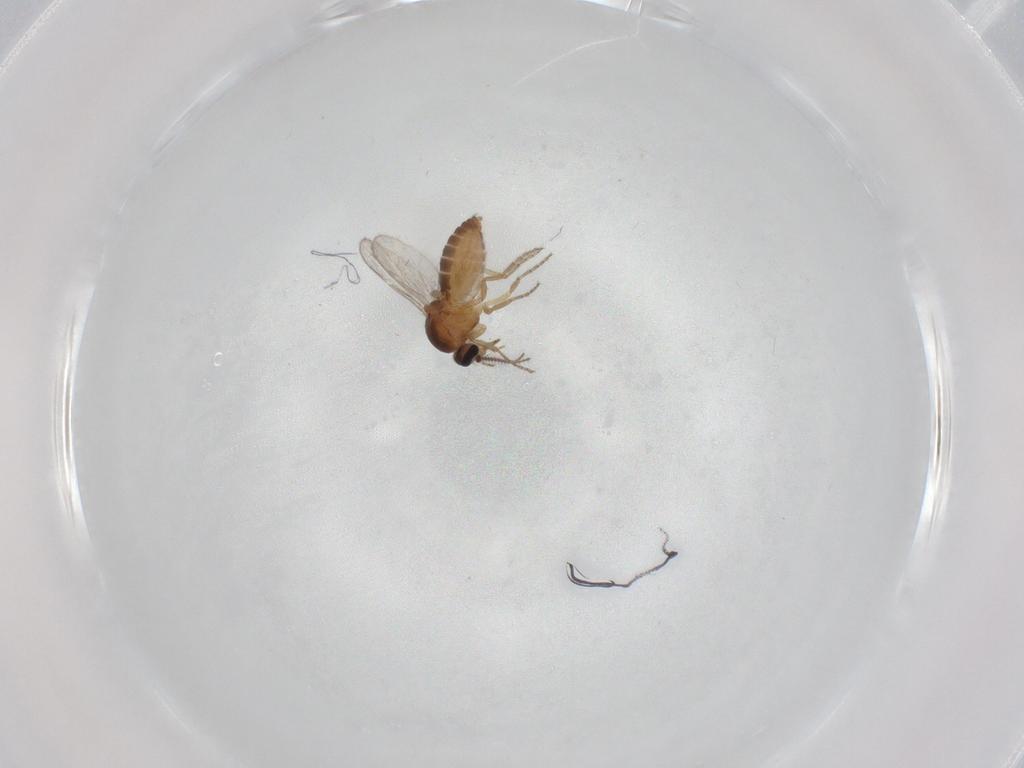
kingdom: Animalia
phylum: Arthropoda
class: Insecta
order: Diptera
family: Ceratopogonidae
